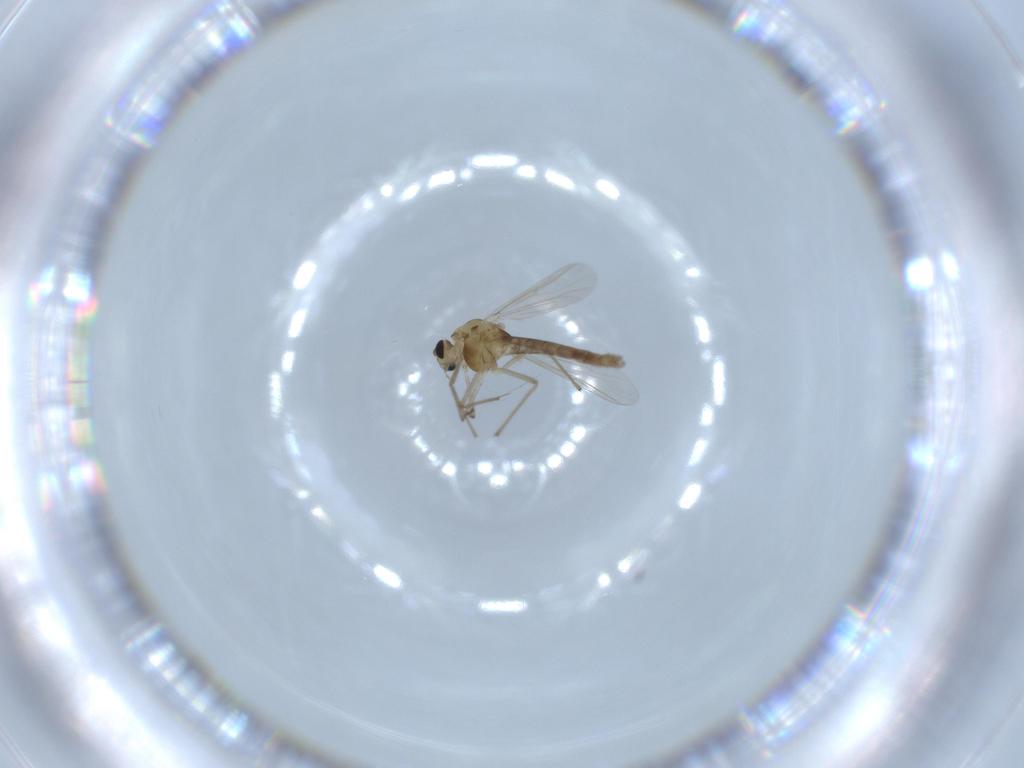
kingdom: Animalia
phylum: Arthropoda
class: Insecta
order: Diptera
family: Chironomidae
